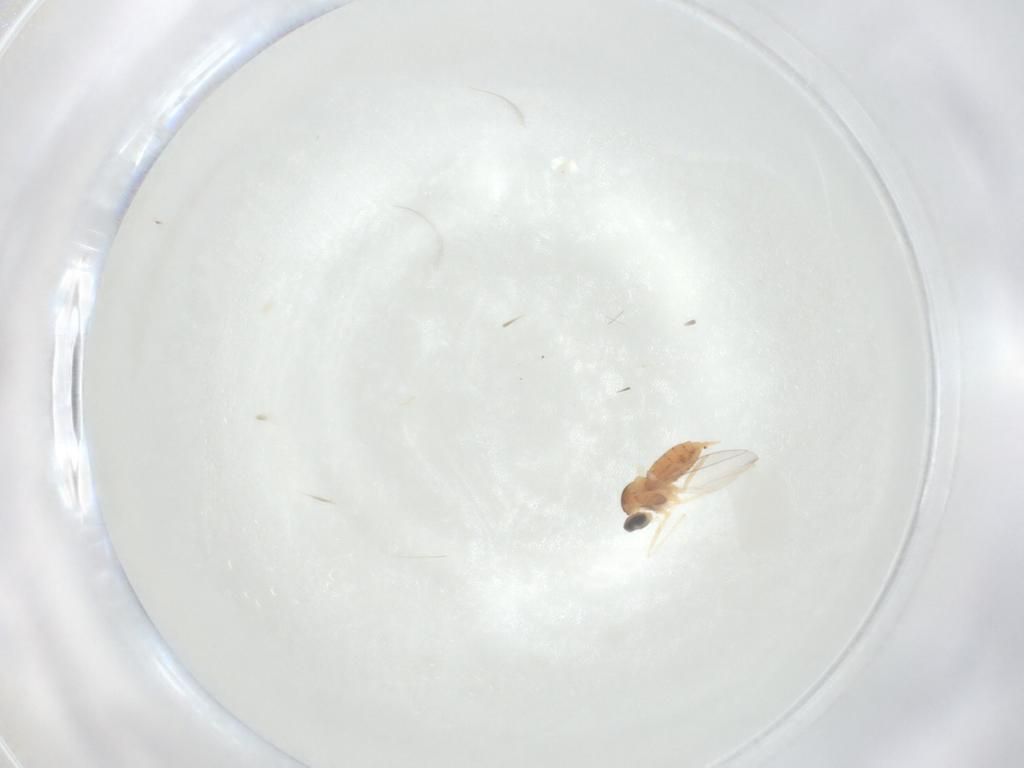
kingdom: Animalia
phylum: Arthropoda
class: Insecta
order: Diptera
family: Cecidomyiidae
